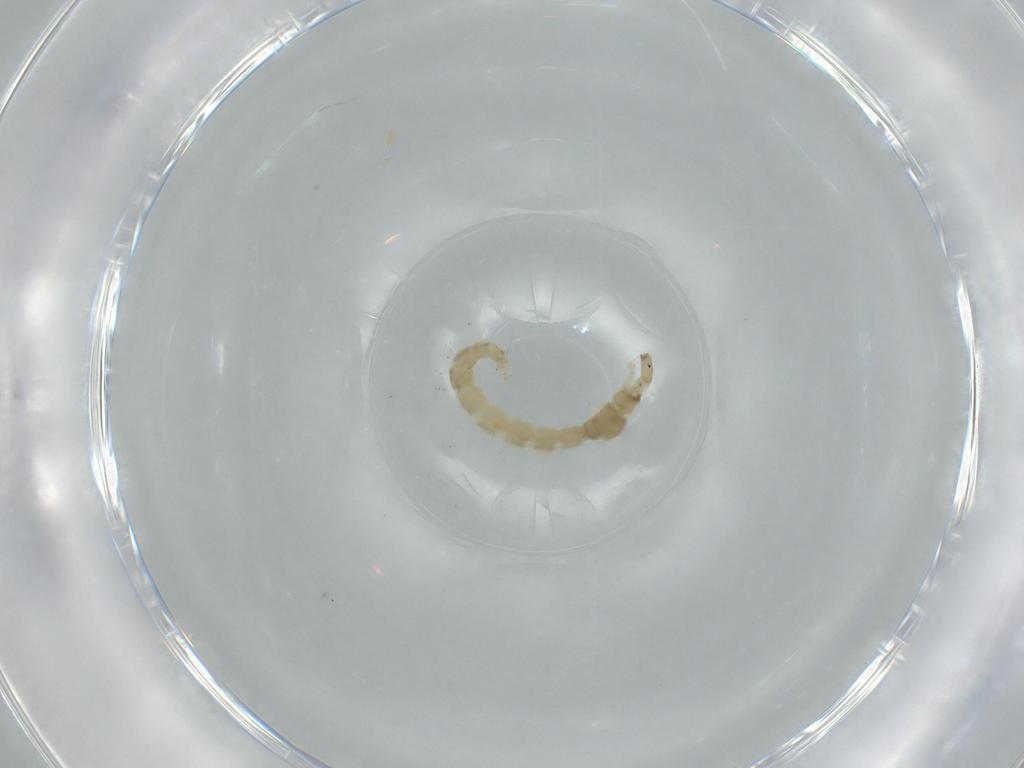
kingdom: Animalia
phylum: Arthropoda
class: Insecta
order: Diptera
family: Chironomidae
